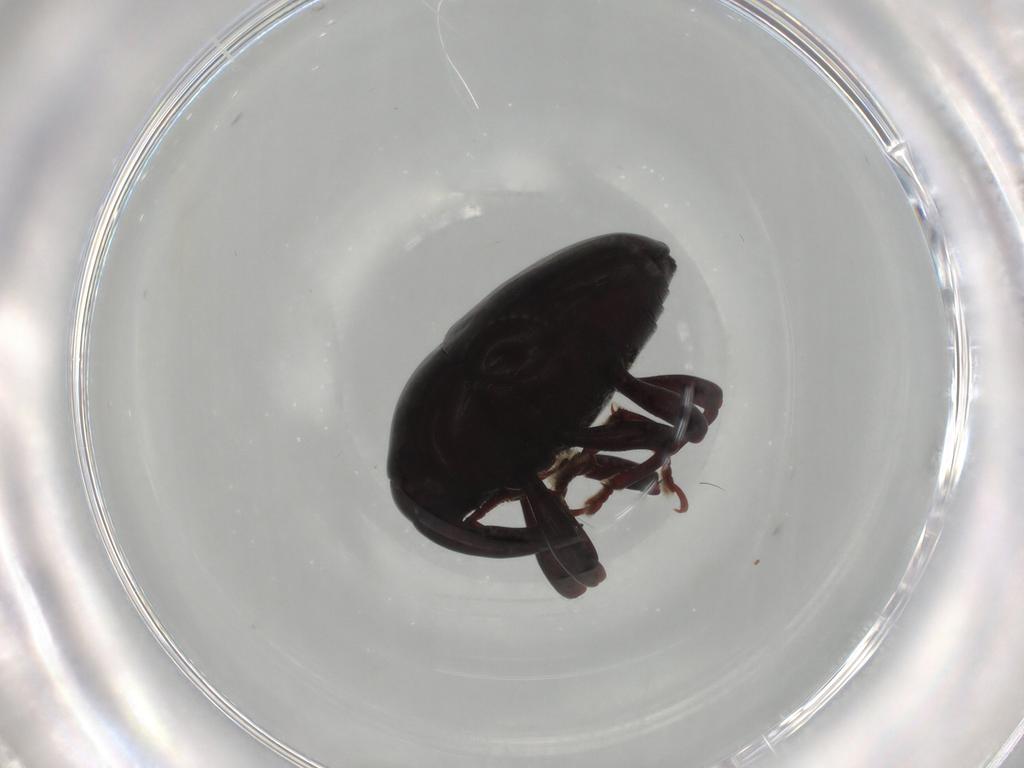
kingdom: Animalia
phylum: Arthropoda
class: Insecta
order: Coleoptera
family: Curculionidae
